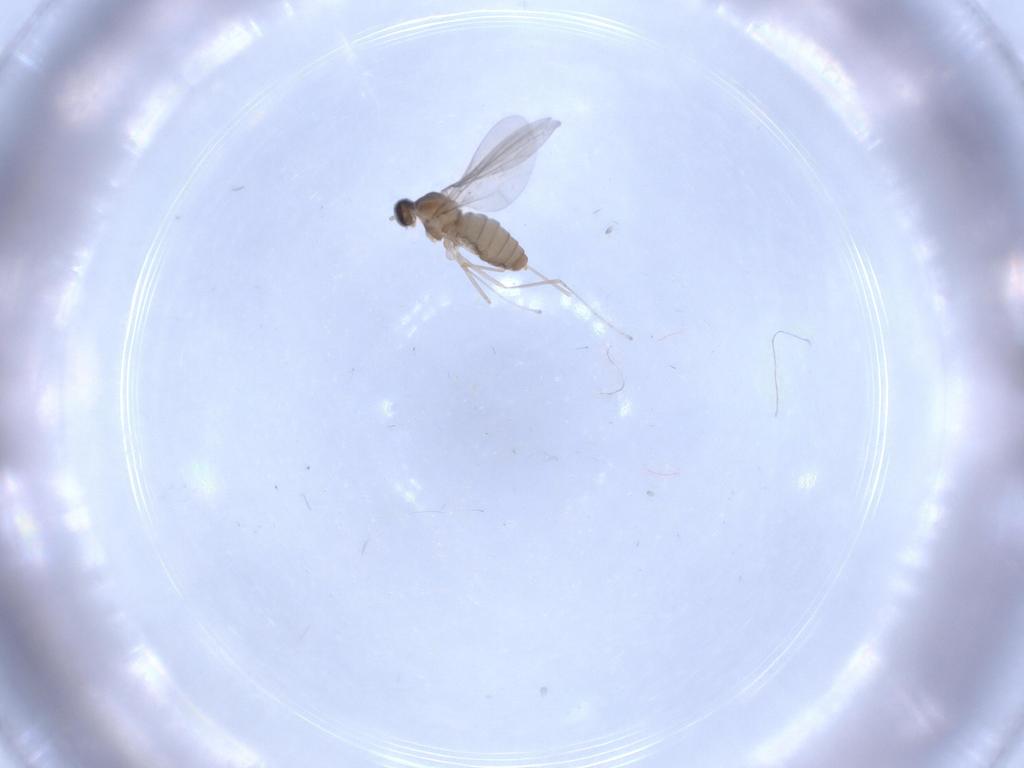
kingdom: Animalia
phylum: Arthropoda
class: Insecta
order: Diptera
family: Cecidomyiidae
